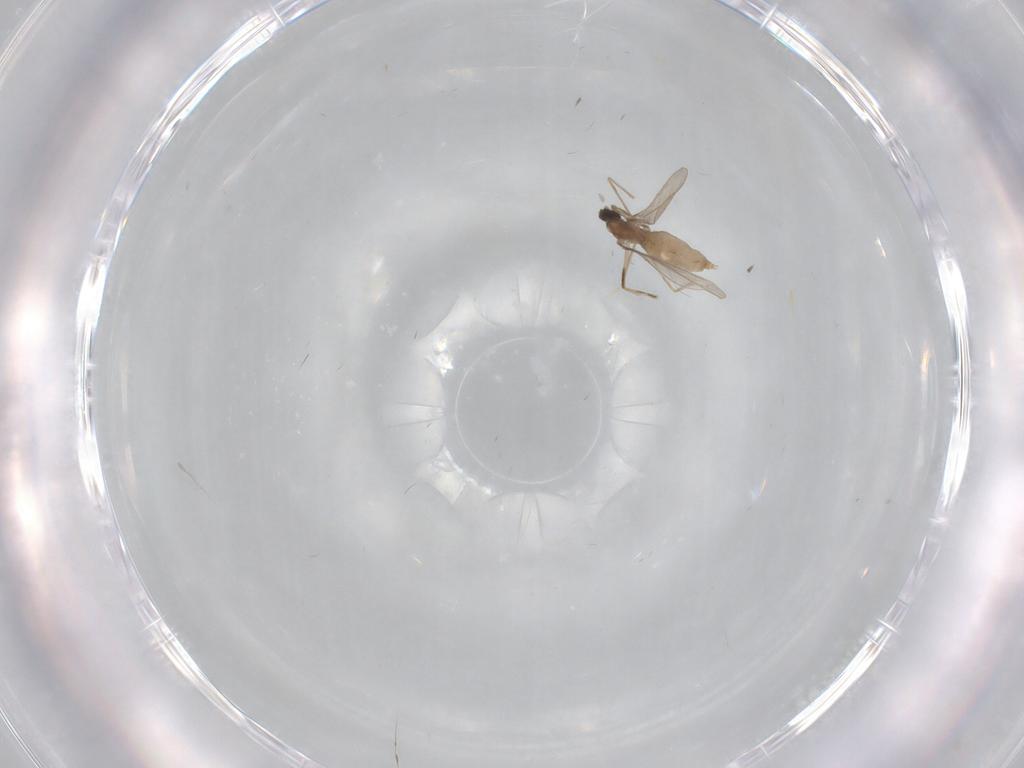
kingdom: Animalia
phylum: Arthropoda
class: Insecta
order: Diptera
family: Cecidomyiidae
